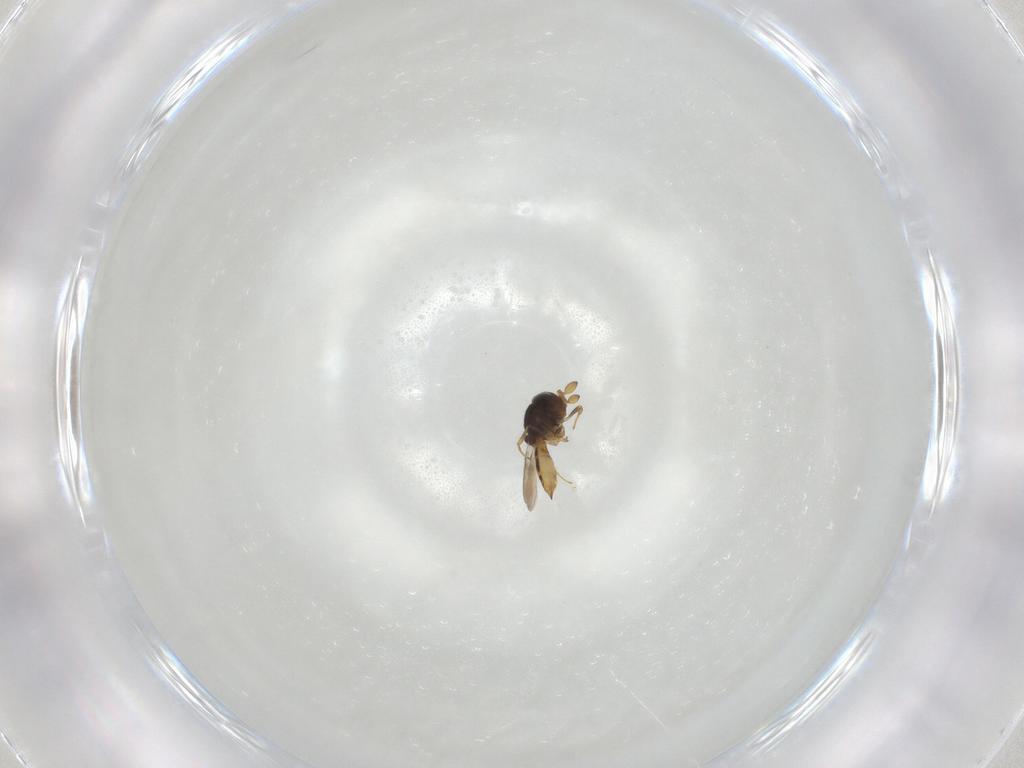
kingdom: Animalia
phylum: Arthropoda
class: Insecta
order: Hymenoptera
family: Scelionidae
